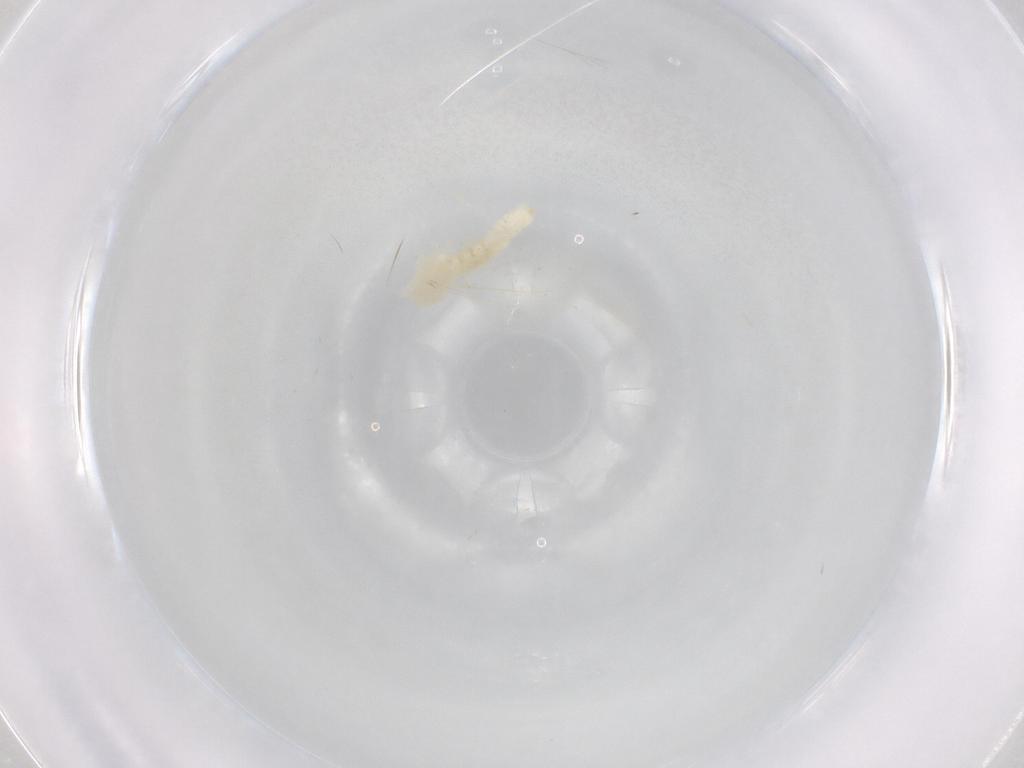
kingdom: Animalia
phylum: Arthropoda
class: Insecta
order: Diptera
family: Cecidomyiidae
